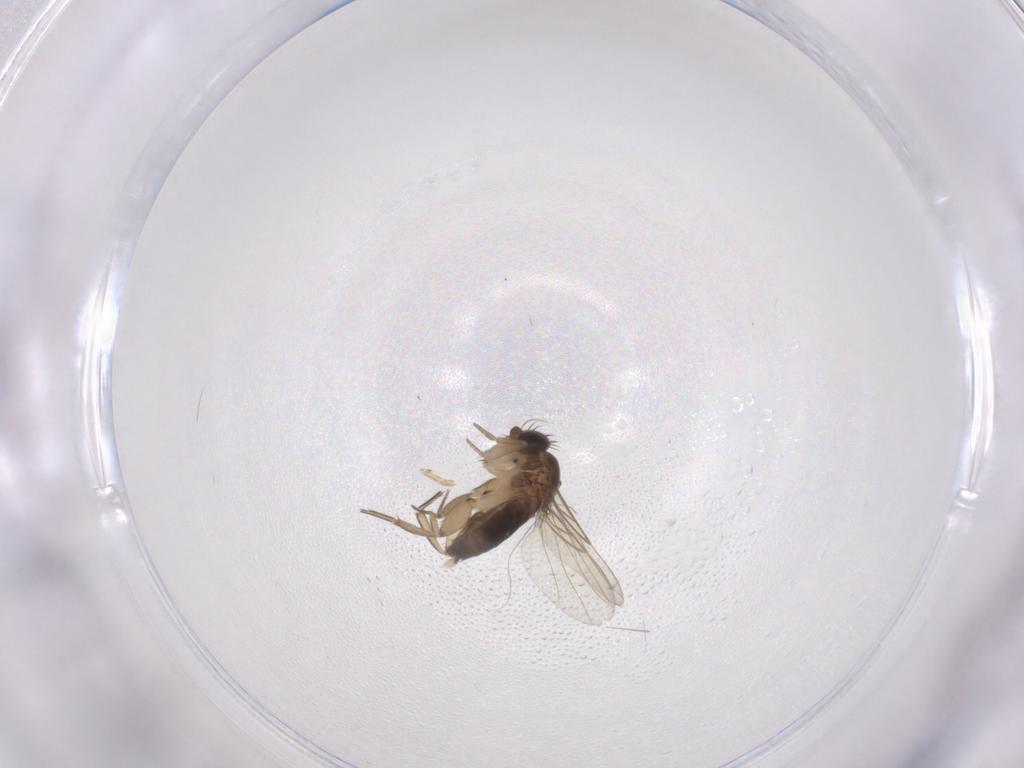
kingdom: Animalia
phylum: Arthropoda
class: Insecta
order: Diptera
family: Phoridae
